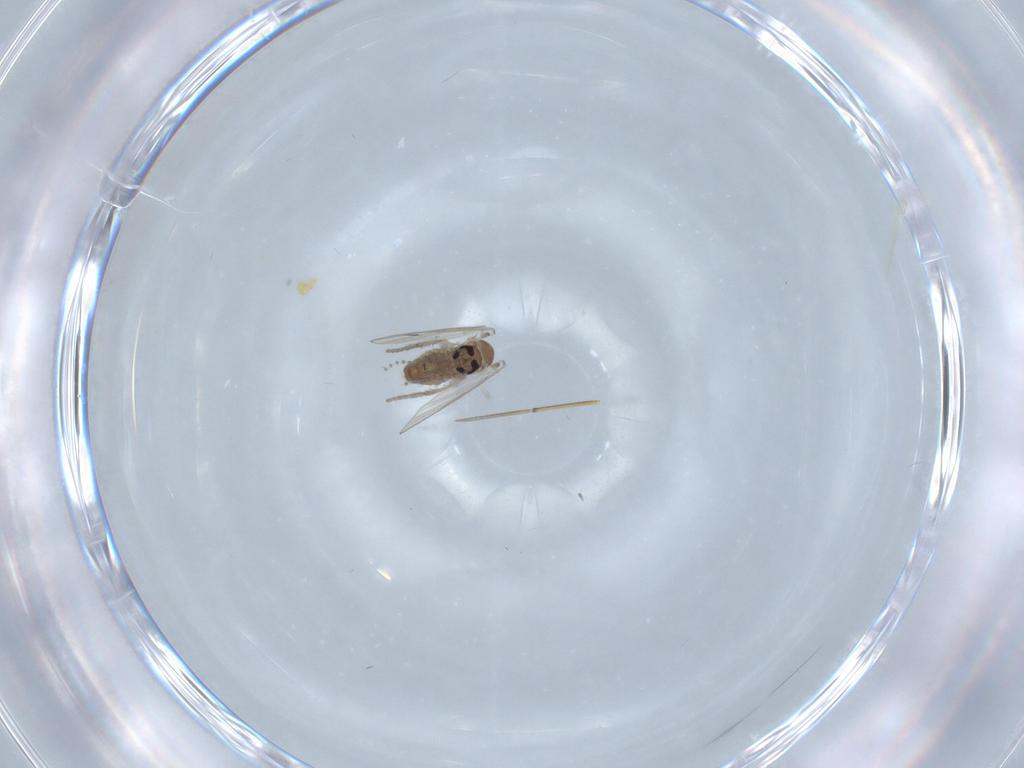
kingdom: Animalia
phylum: Arthropoda
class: Insecta
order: Diptera
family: Psychodidae
